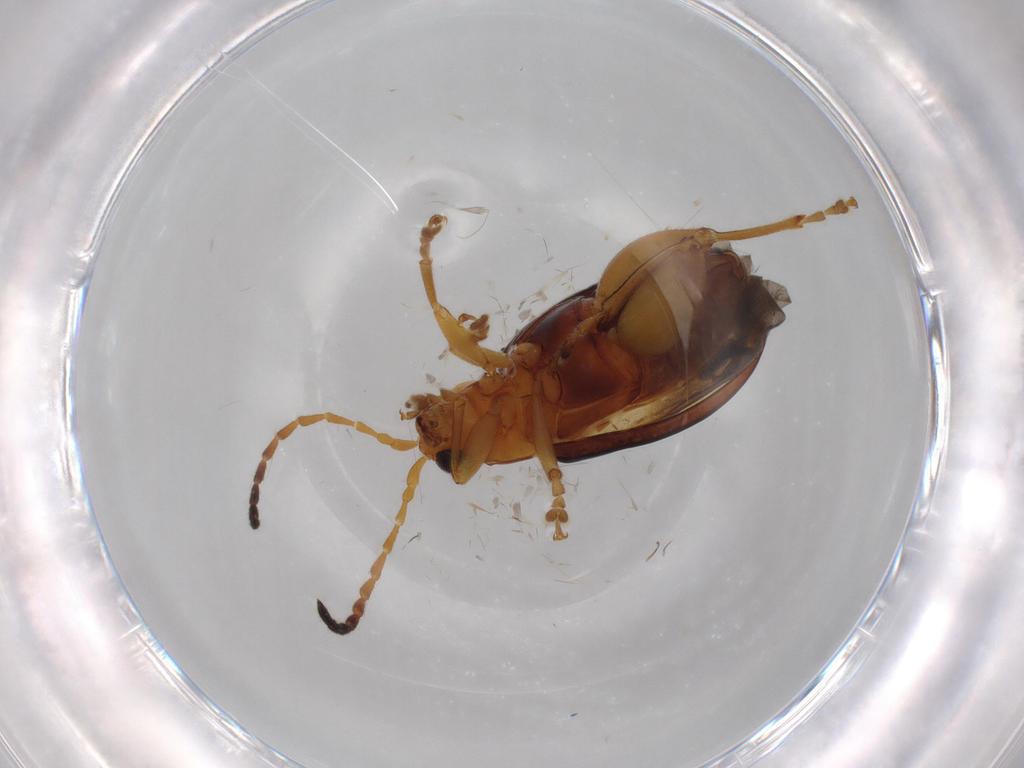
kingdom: Animalia
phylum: Arthropoda
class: Insecta
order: Coleoptera
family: Chrysomelidae
